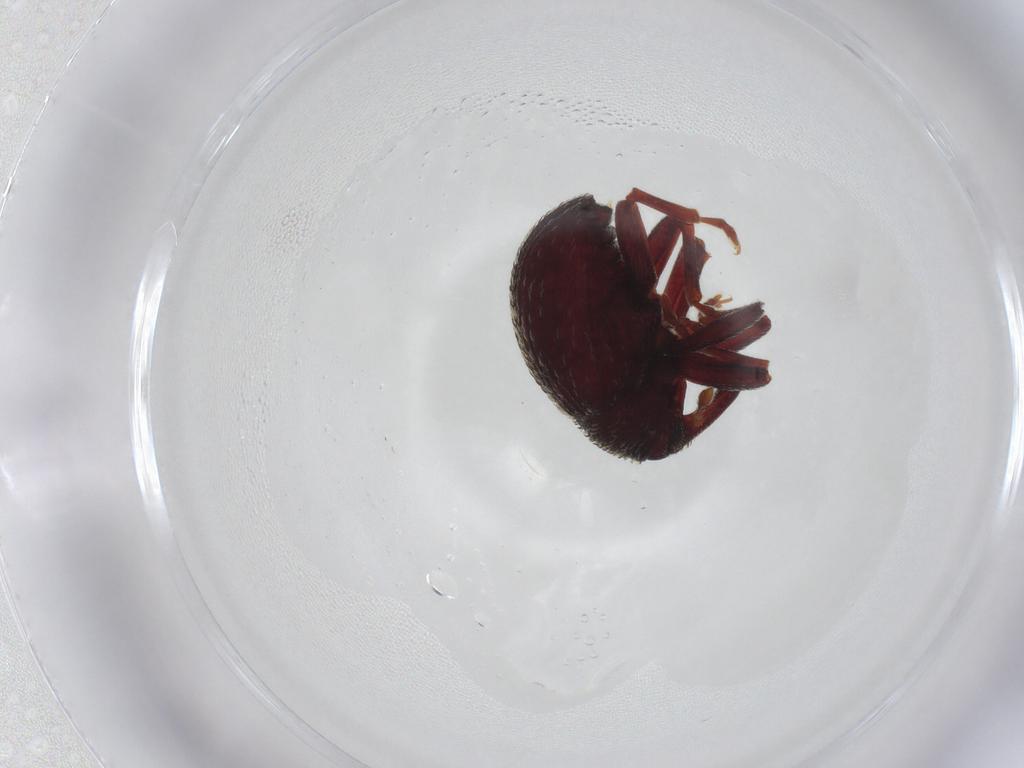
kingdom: Animalia
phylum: Arthropoda
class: Insecta
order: Coleoptera
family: Curculionidae
